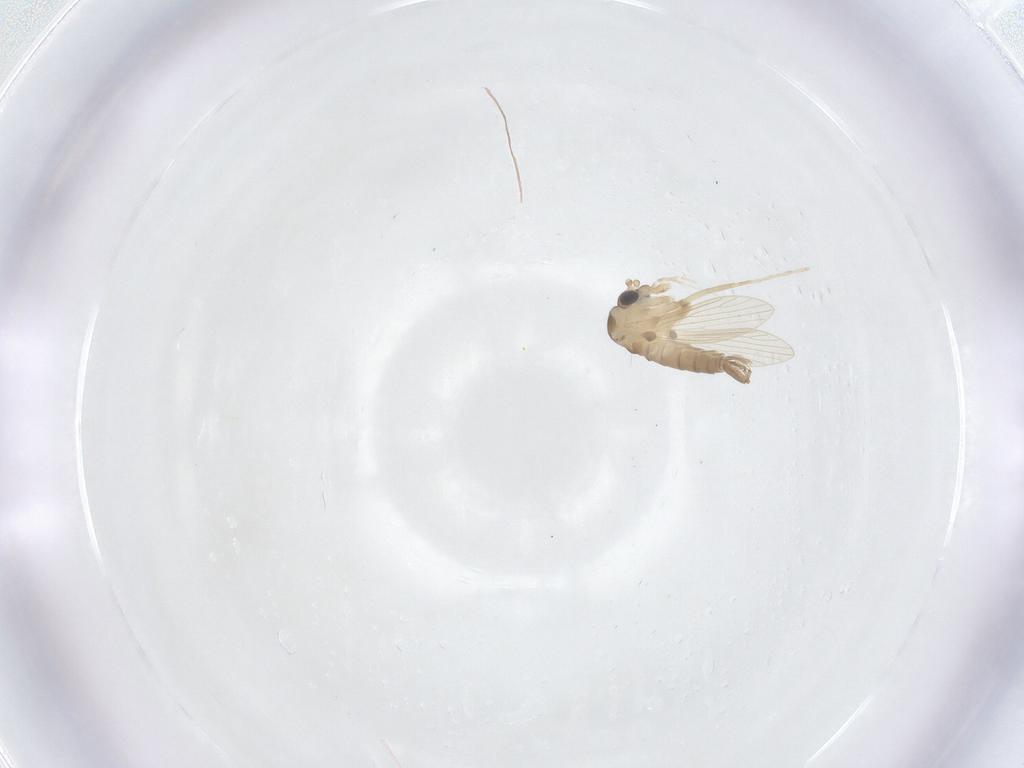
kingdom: Animalia
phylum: Arthropoda
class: Insecta
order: Diptera
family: Psychodidae
